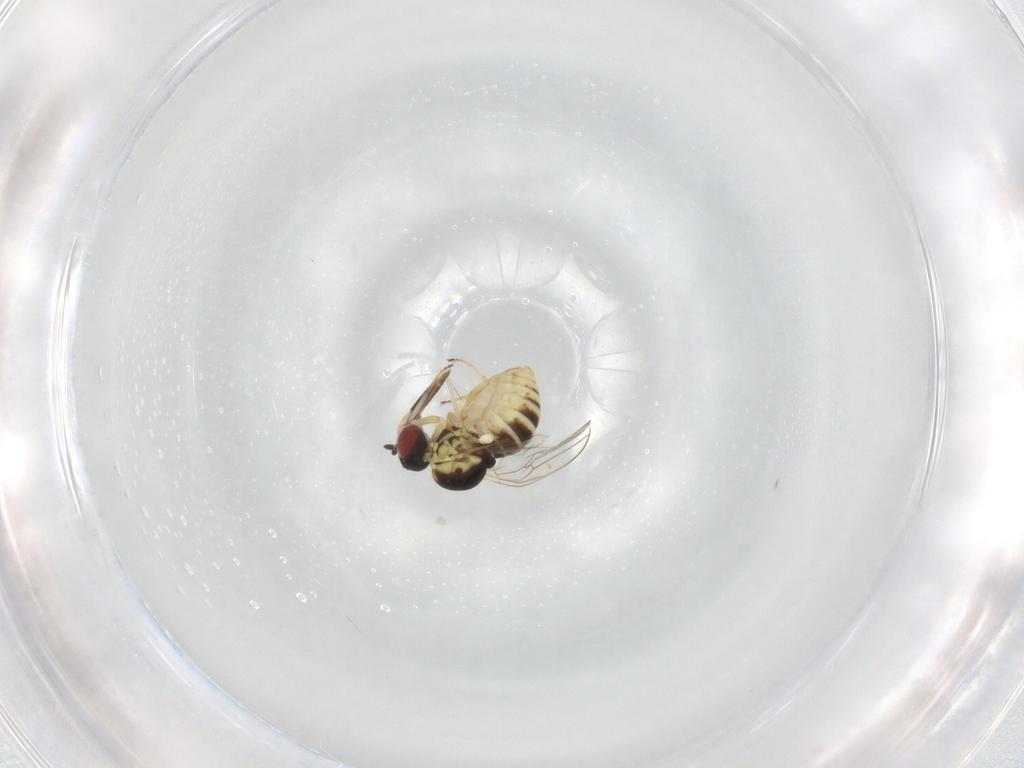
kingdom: Animalia
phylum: Arthropoda
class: Insecta
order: Diptera
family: Bombyliidae
